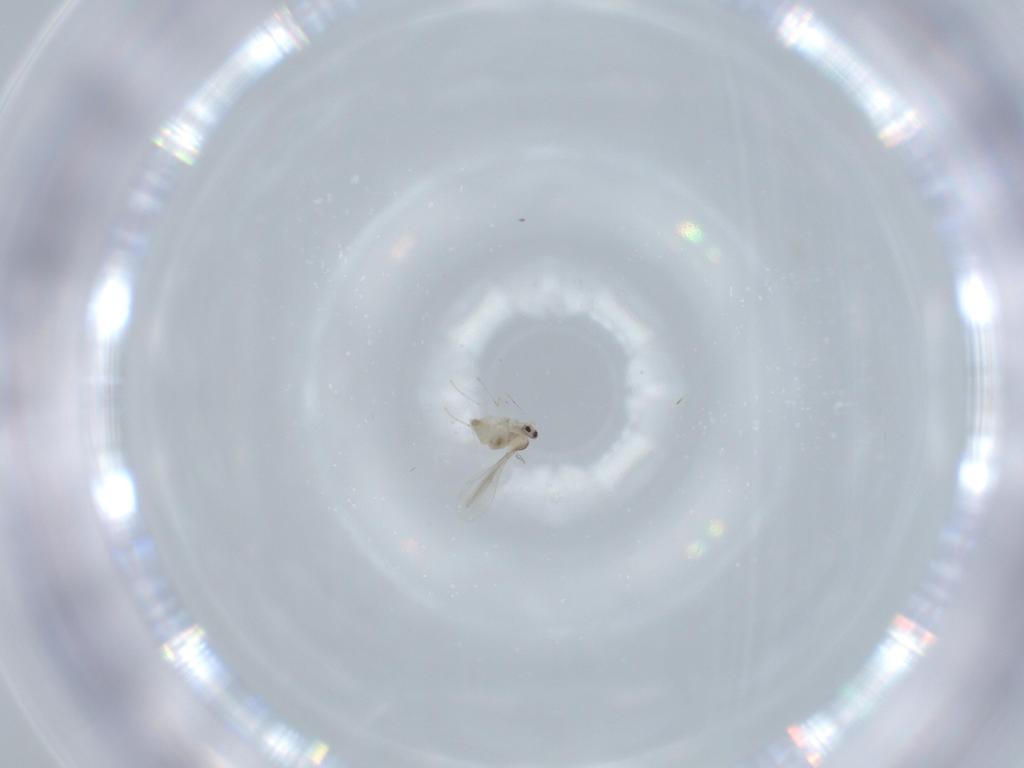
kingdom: Animalia
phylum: Arthropoda
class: Insecta
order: Diptera
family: Cecidomyiidae
